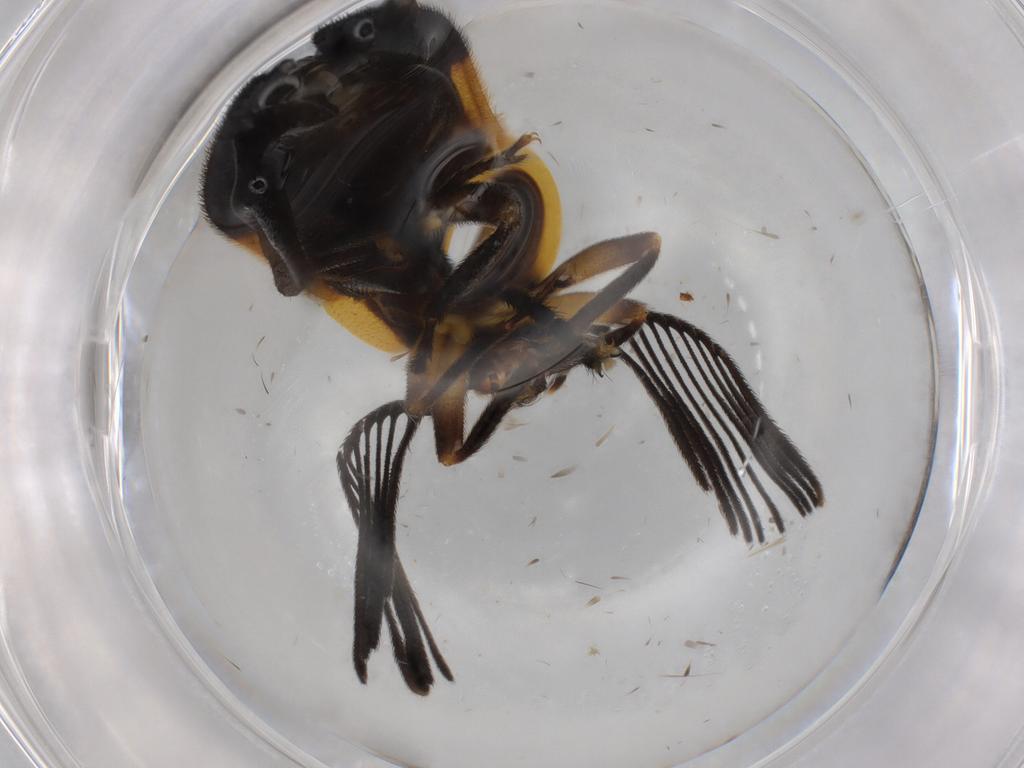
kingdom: Animalia
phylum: Arthropoda
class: Insecta
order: Coleoptera
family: Lampyridae
